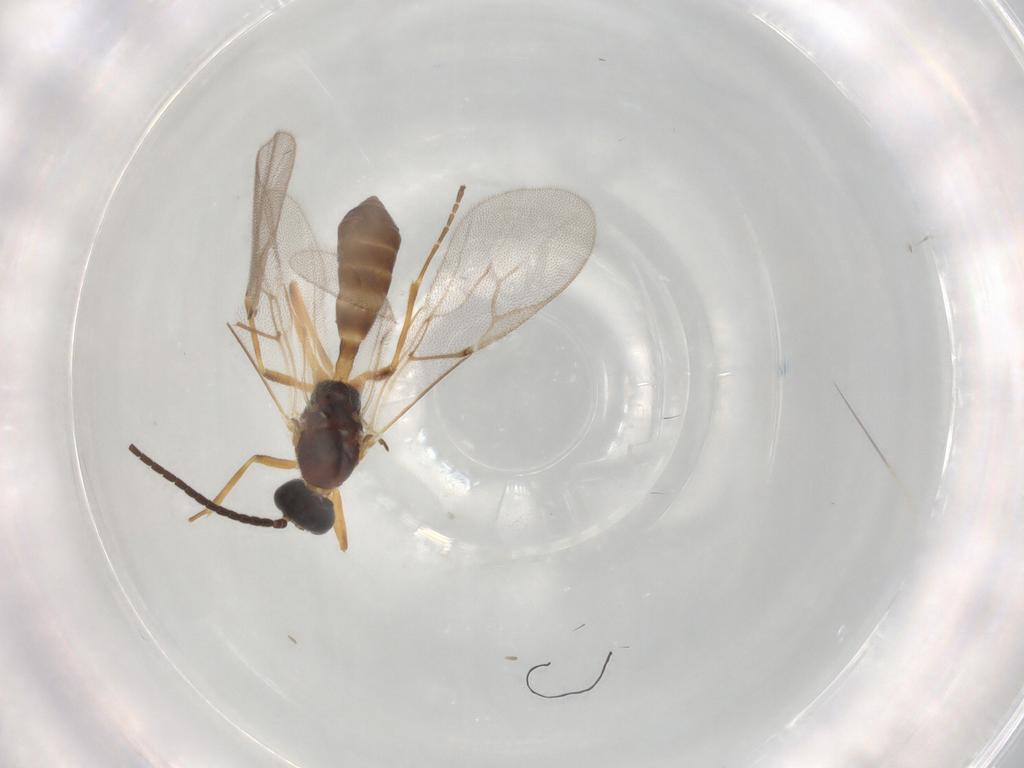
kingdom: Animalia
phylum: Arthropoda
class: Insecta
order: Hymenoptera
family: Braconidae
